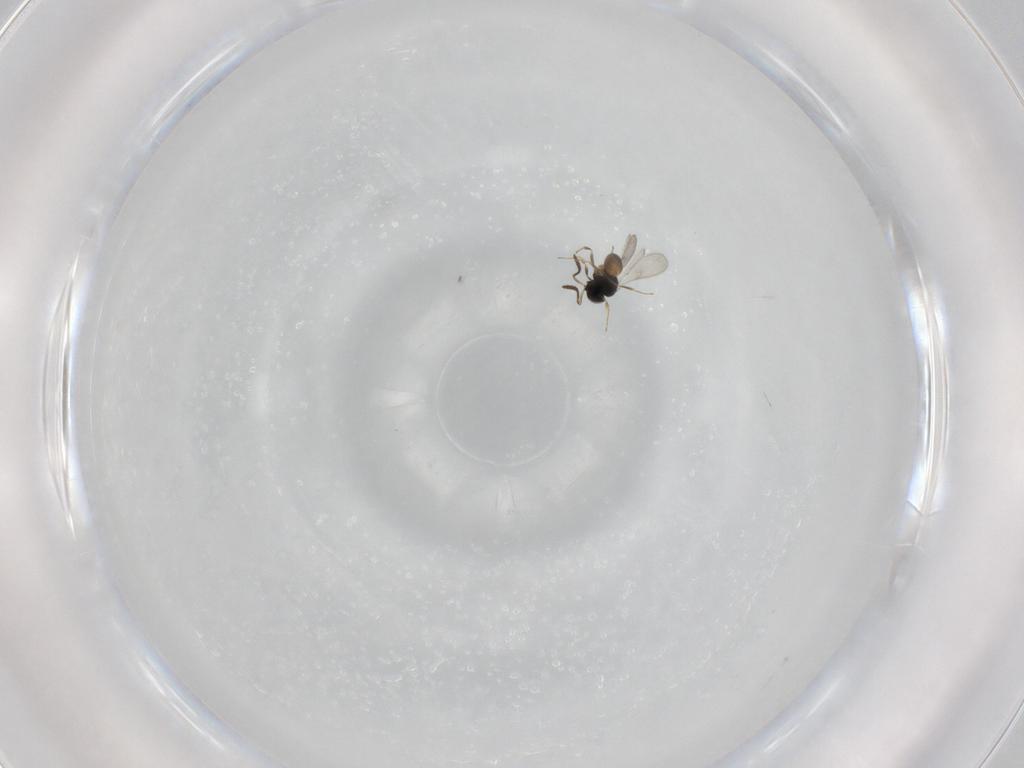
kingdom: Animalia
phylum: Arthropoda
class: Insecta
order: Hymenoptera
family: Scelionidae
